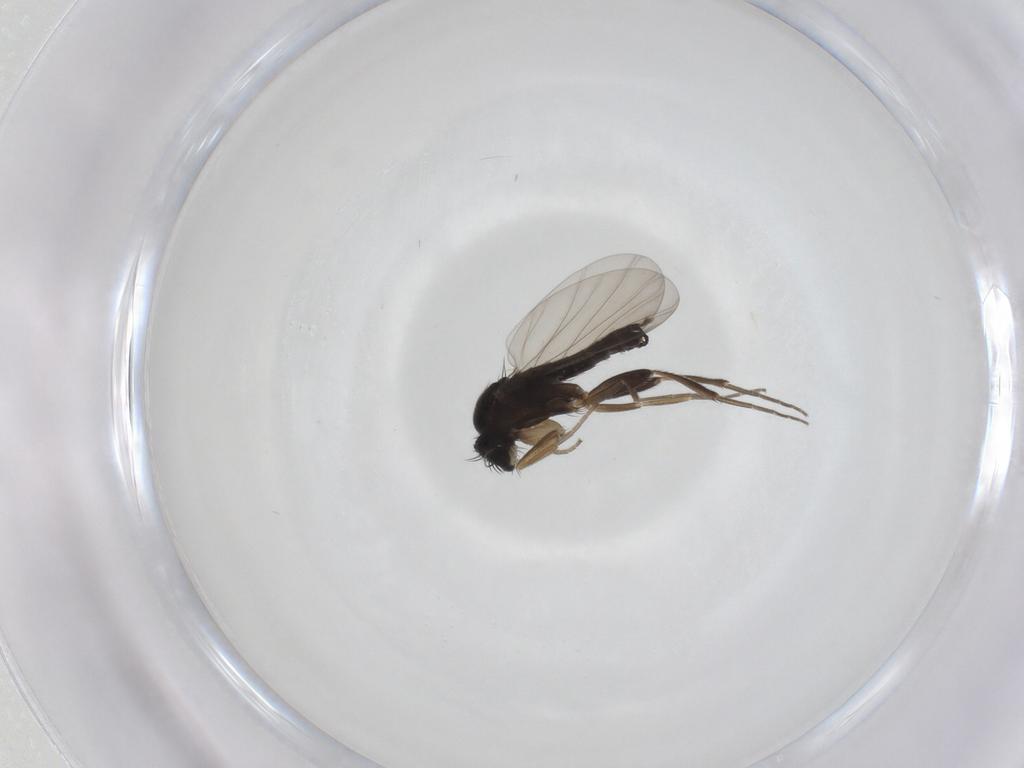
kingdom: Animalia
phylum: Arthropoda
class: Insecta
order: Diptera
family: Phoridae
